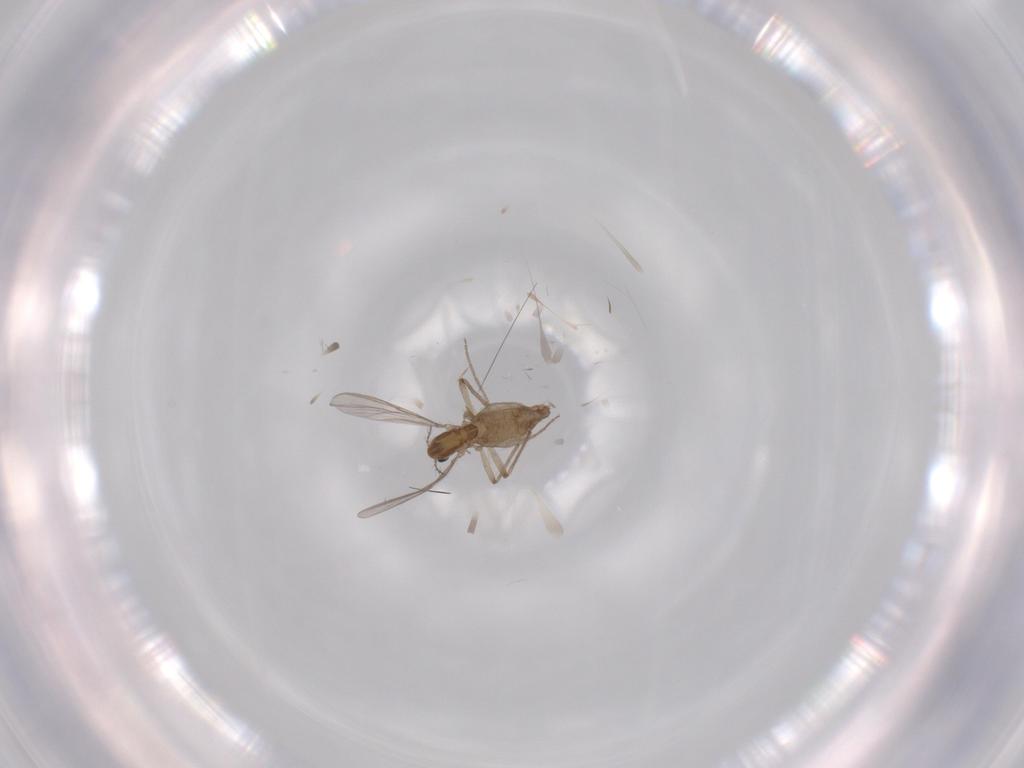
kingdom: Animalia
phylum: Arthropoda
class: Insecta
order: Diptera
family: Chironomidae
